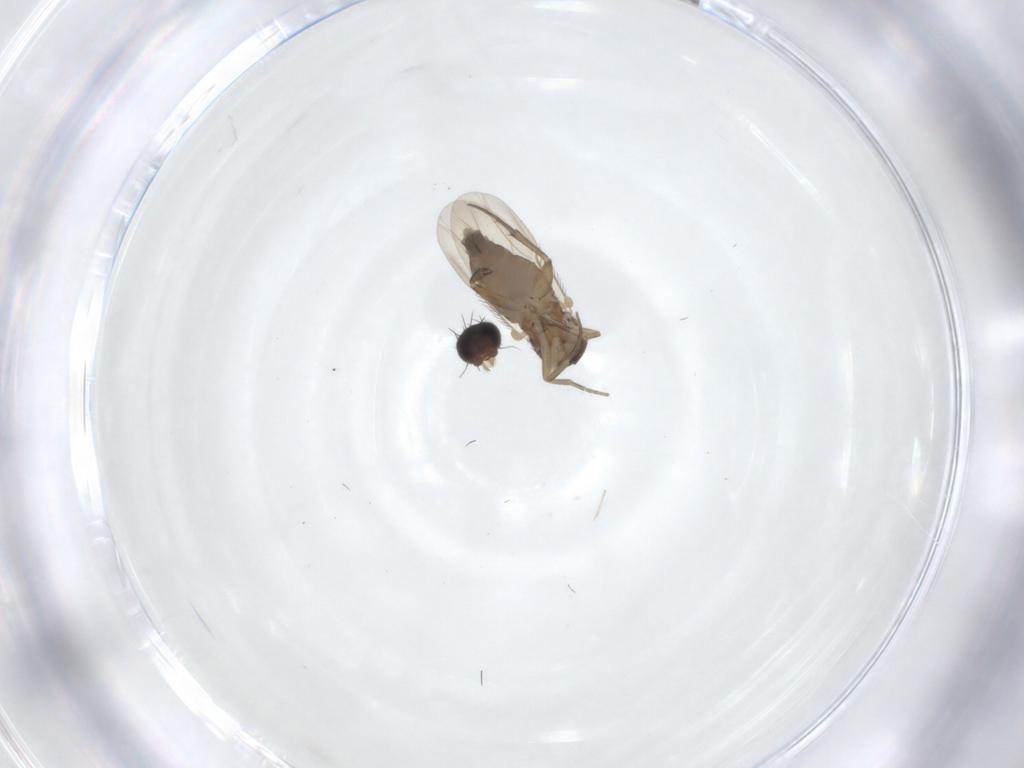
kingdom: Animalia
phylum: Arthropoda
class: Insecta
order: Diptera
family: Phoridae
